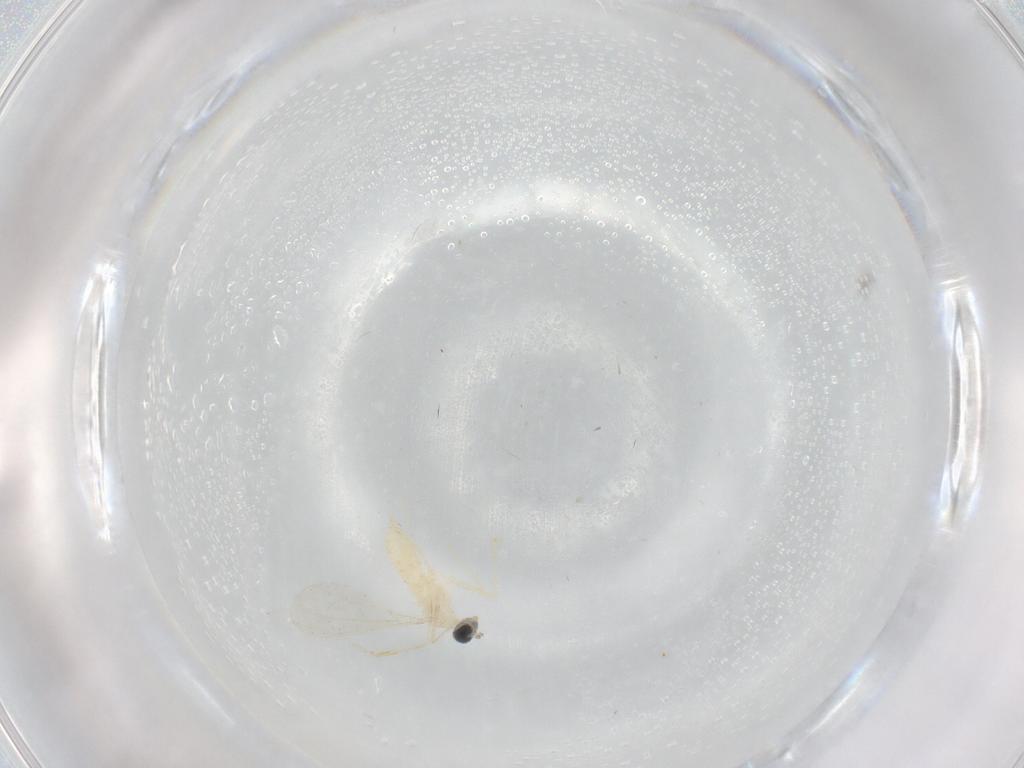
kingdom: Animalia
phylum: Arthropoda
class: Insecta
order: Diptera
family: Cecidomyiidae
